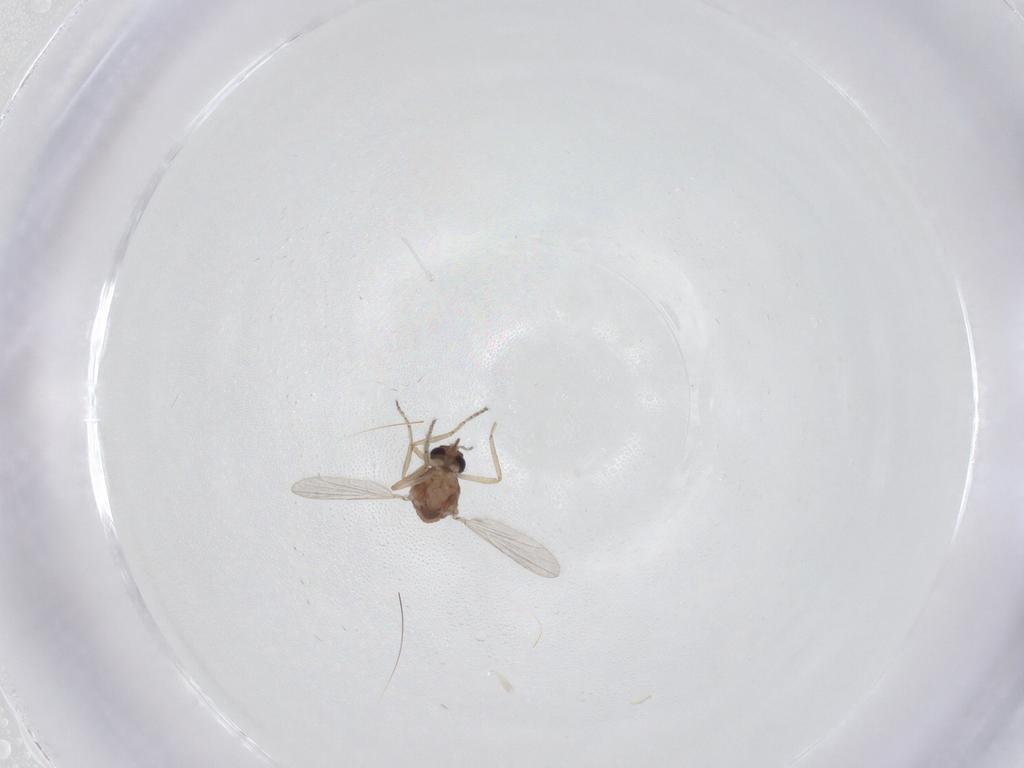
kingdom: Animalia
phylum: Arthropoda
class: Insecta
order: Diptera
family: Ceratopogonidae
